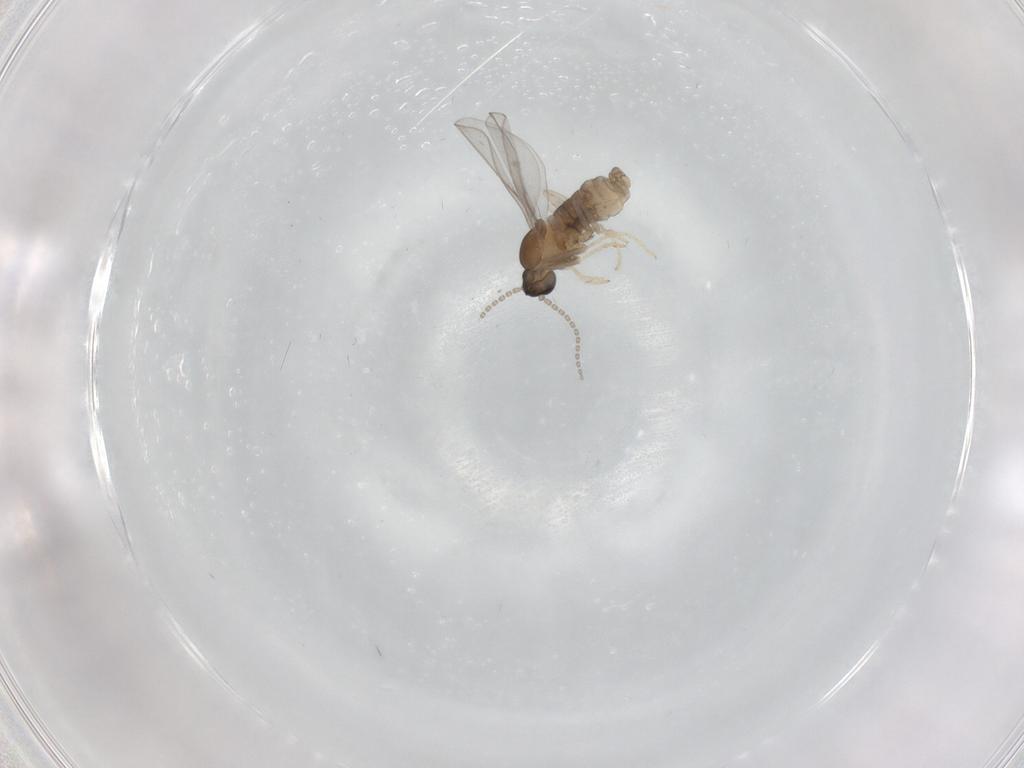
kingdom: Animalia
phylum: Arthropoda
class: Insecta
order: Diptera
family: Cecidomyiidae
